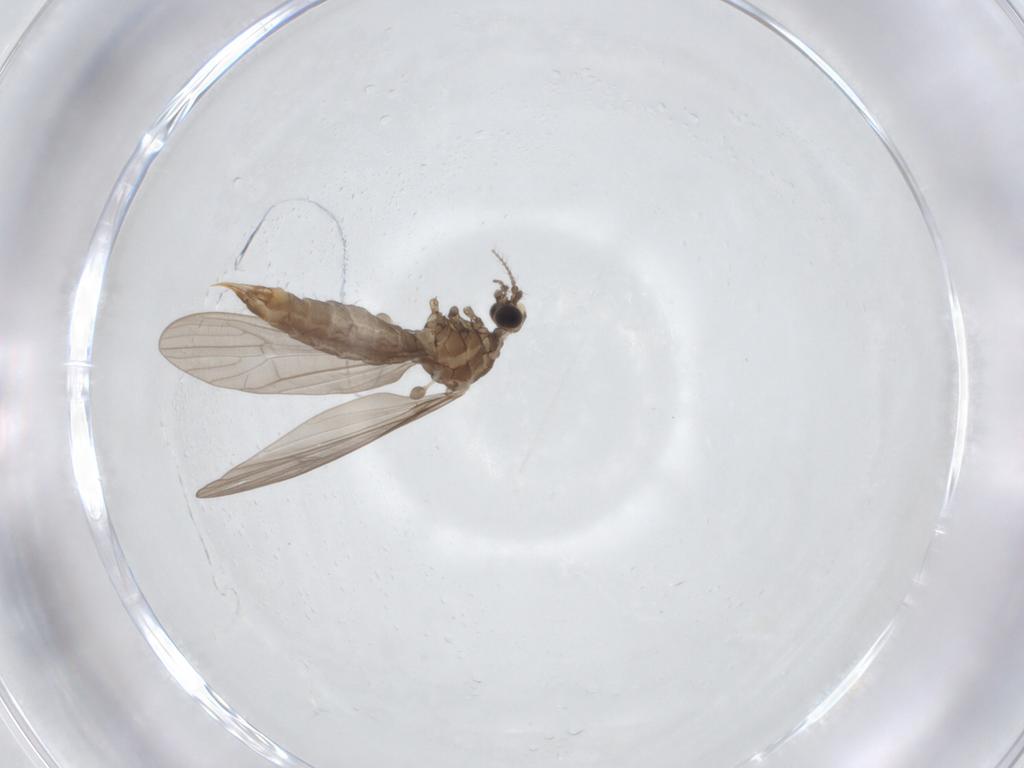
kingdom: Animalia
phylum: Arthropoda
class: Insecta
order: Diptera
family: Limoniidae
